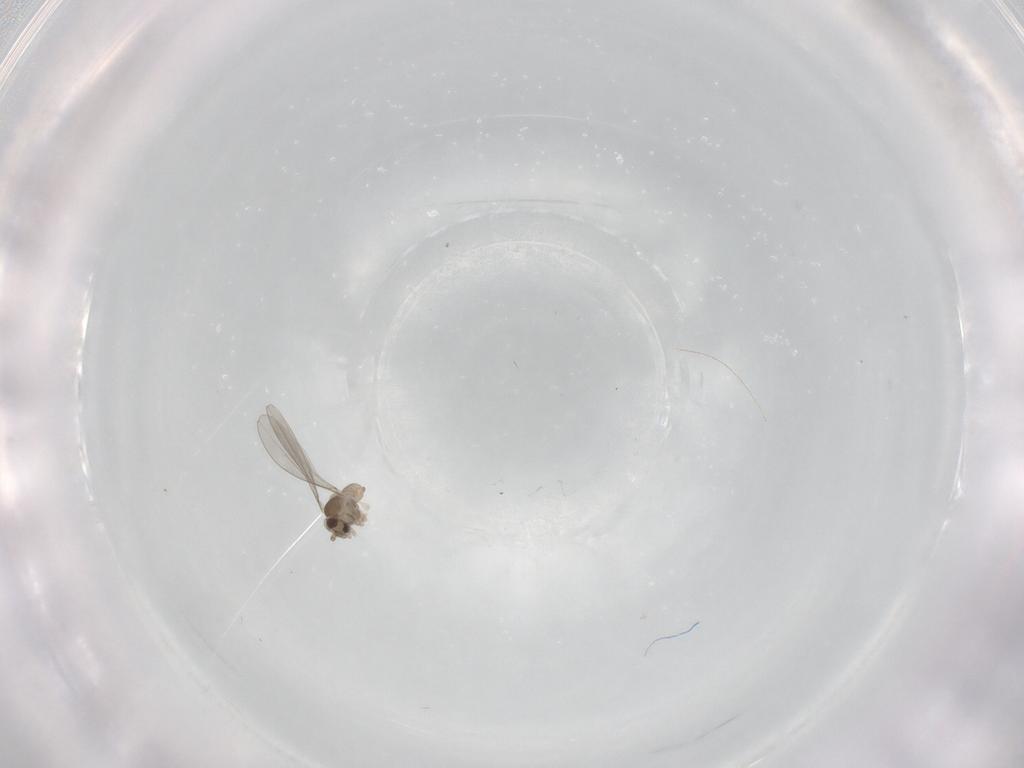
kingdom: Animalia
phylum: Arthropoda
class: Insecta
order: Diptera
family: Cecidomyiidae
